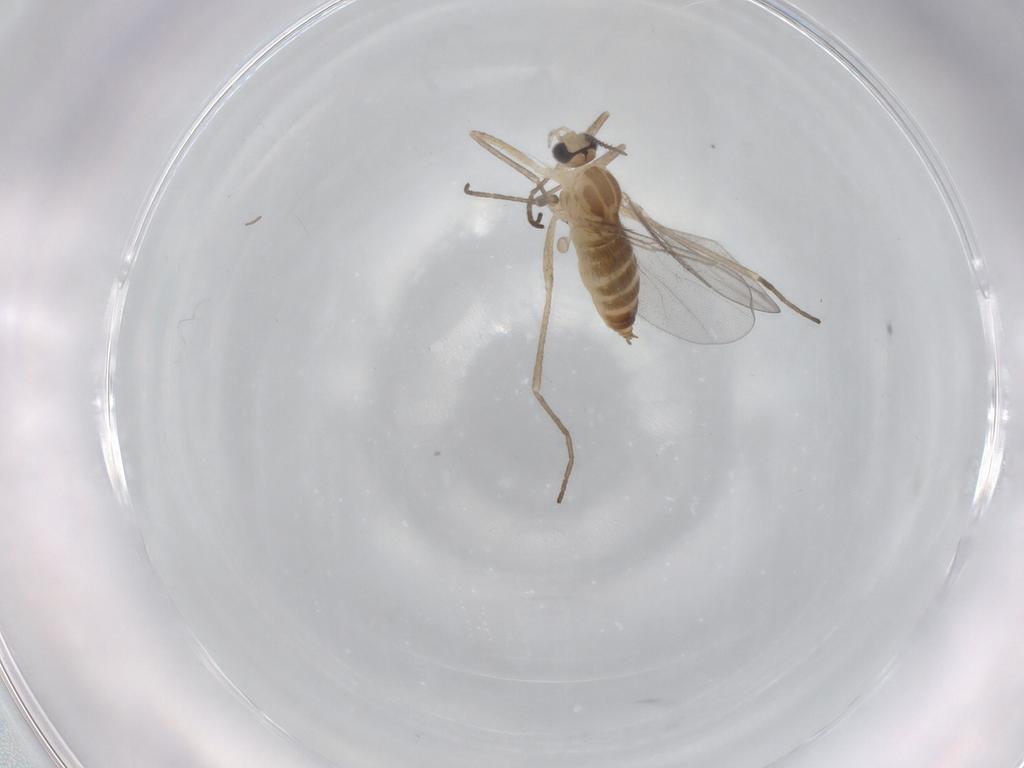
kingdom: Animalia
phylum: Arthropoda
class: Insecta
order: Diptera
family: Cecidomyiidae
